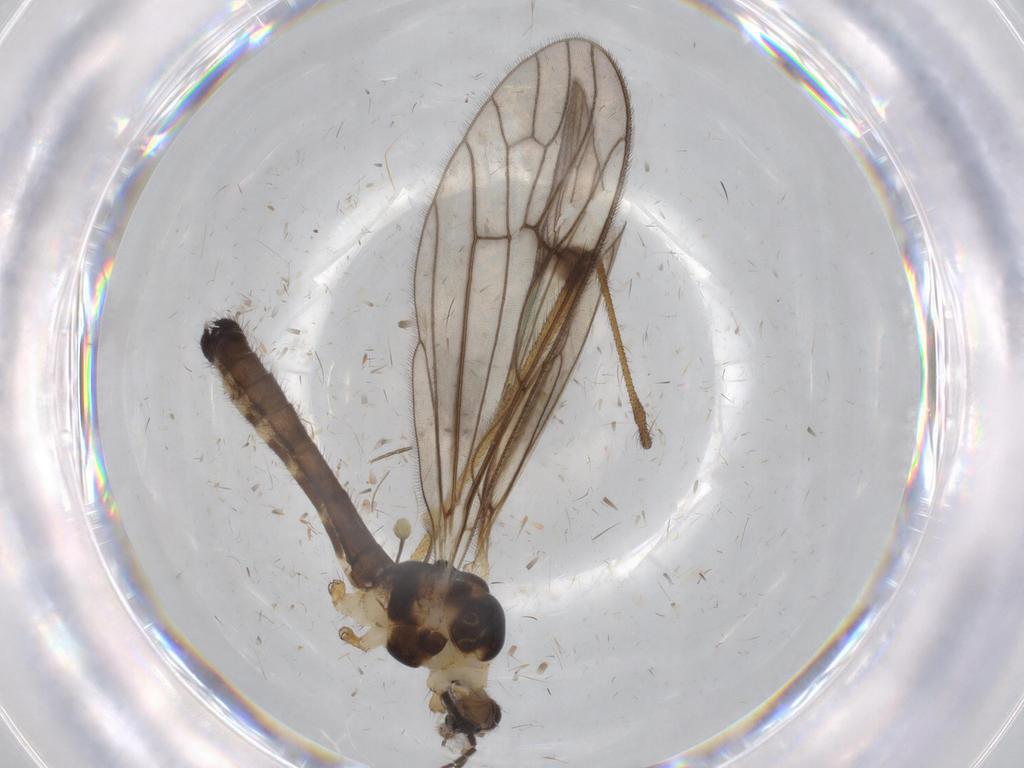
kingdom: Animalia
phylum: Arthropoda
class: Insecta
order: Diptera
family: Limoniidae
